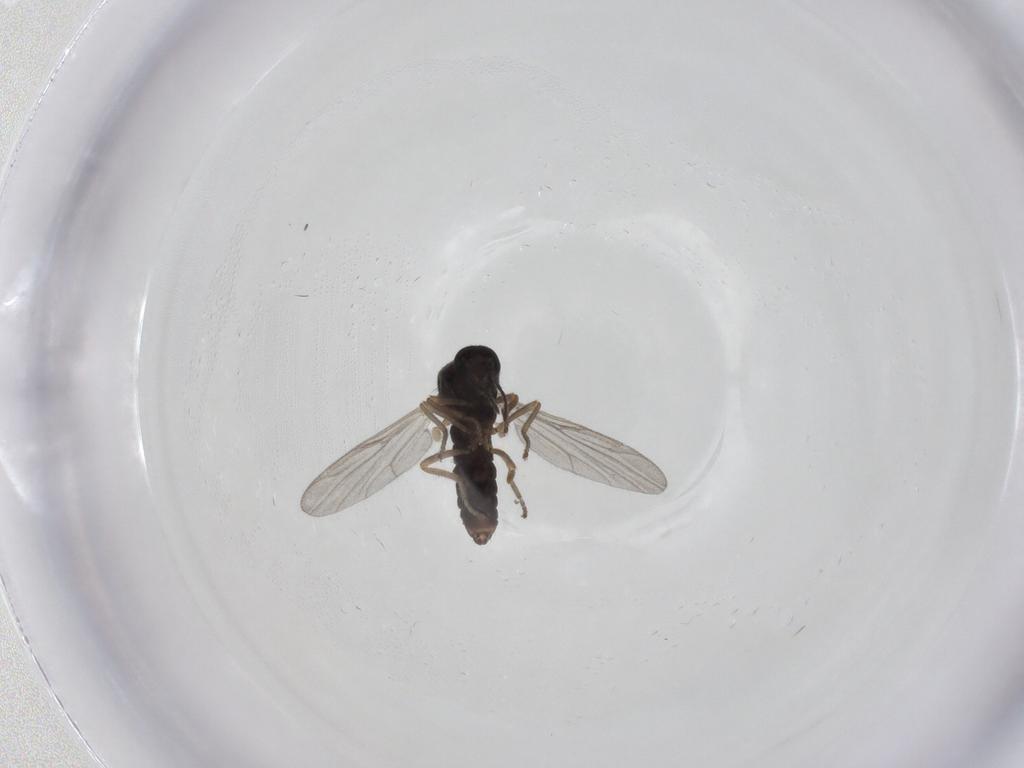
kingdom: Animalia
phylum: Arthropoda
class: Insecta
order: Diptera
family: Ceratopogonidae
